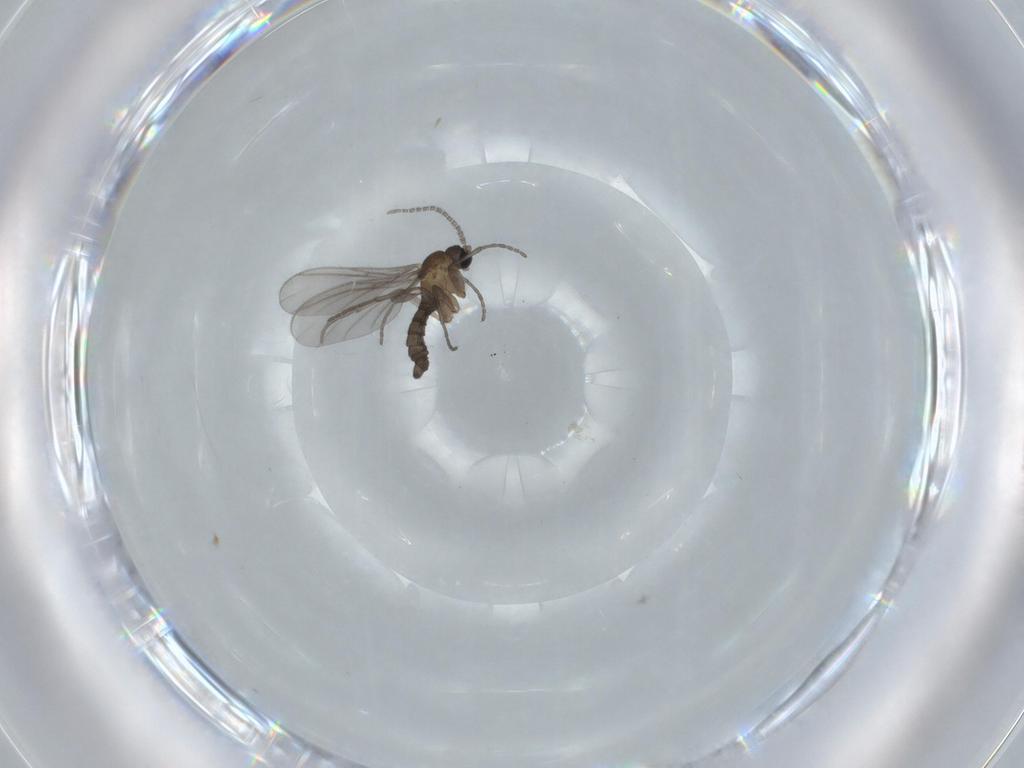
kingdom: Animalia
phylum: Arthropoda
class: Insecta
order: Diptera
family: Sciaridae
